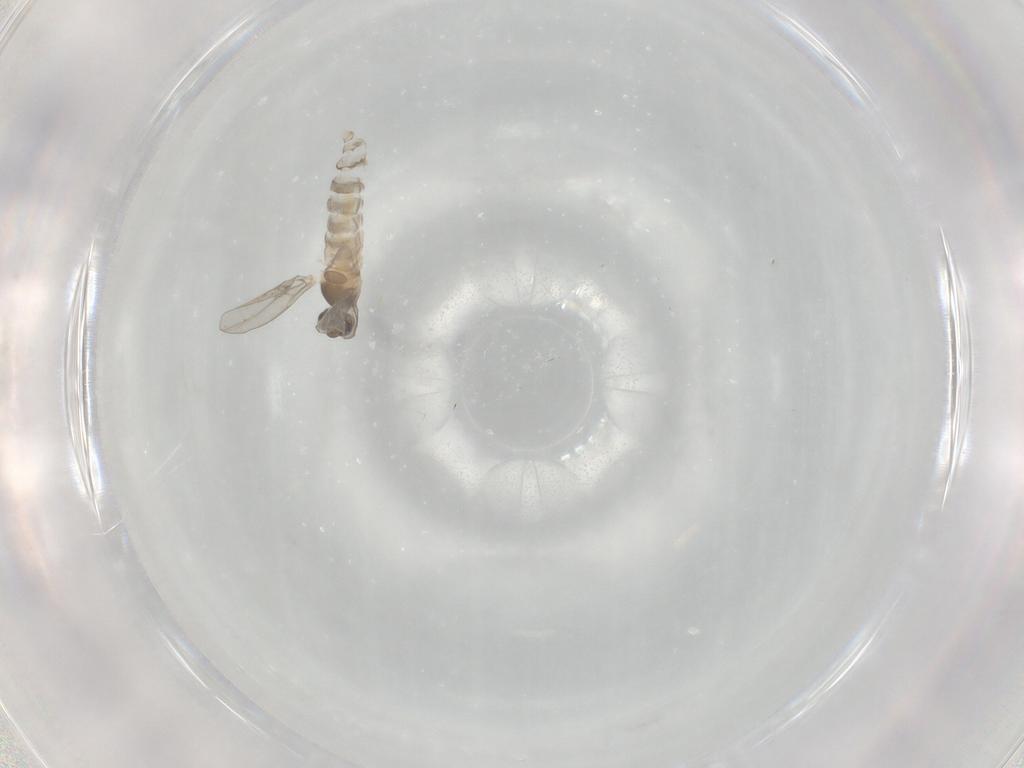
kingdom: Animalia
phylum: Arthropoda
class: Insecta
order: Diptera
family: Cecidomyiidae
